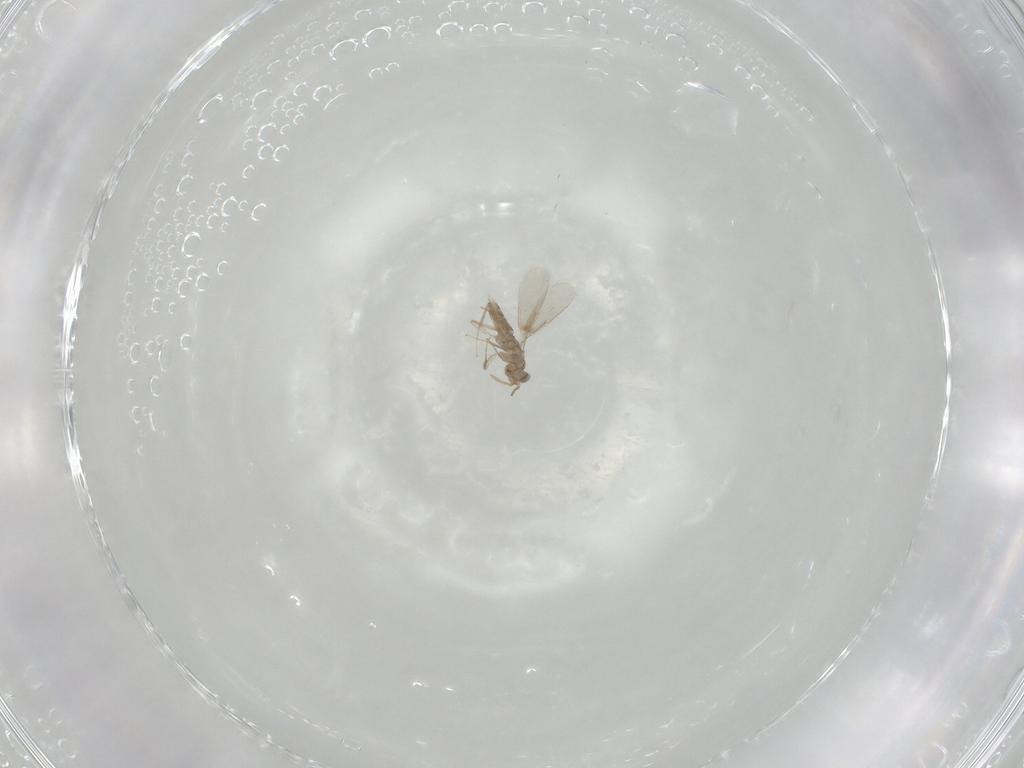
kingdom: Animalia
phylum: Arthropoda
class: Insecta
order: Hymenoptera
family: Aphelinidae
